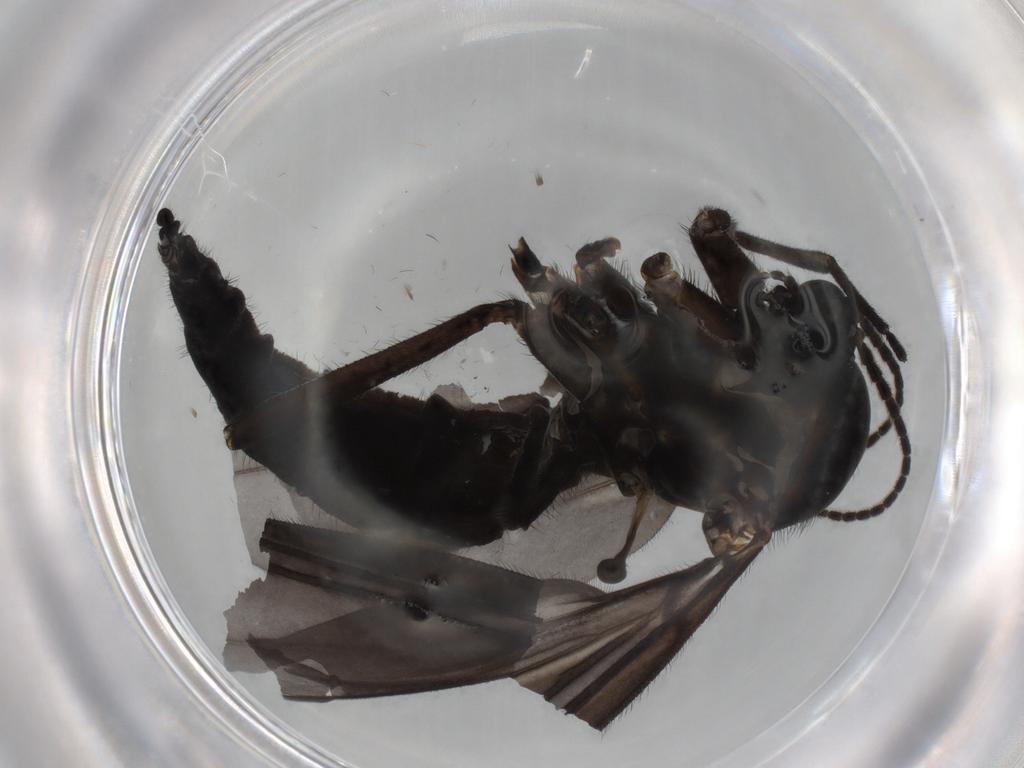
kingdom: Animalia
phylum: Arthropoda
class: Insecta
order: Diptera
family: Sciaridae
